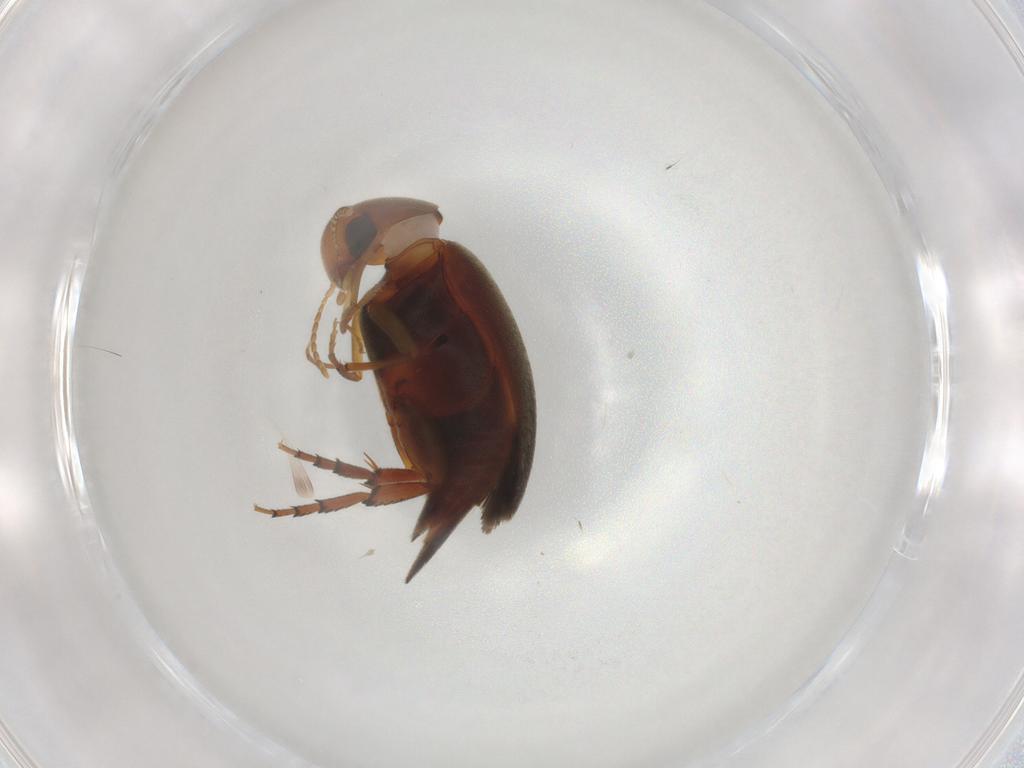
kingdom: Animalia
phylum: Arthropoda
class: Insecta
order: Coleoptera
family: Mordellidae
